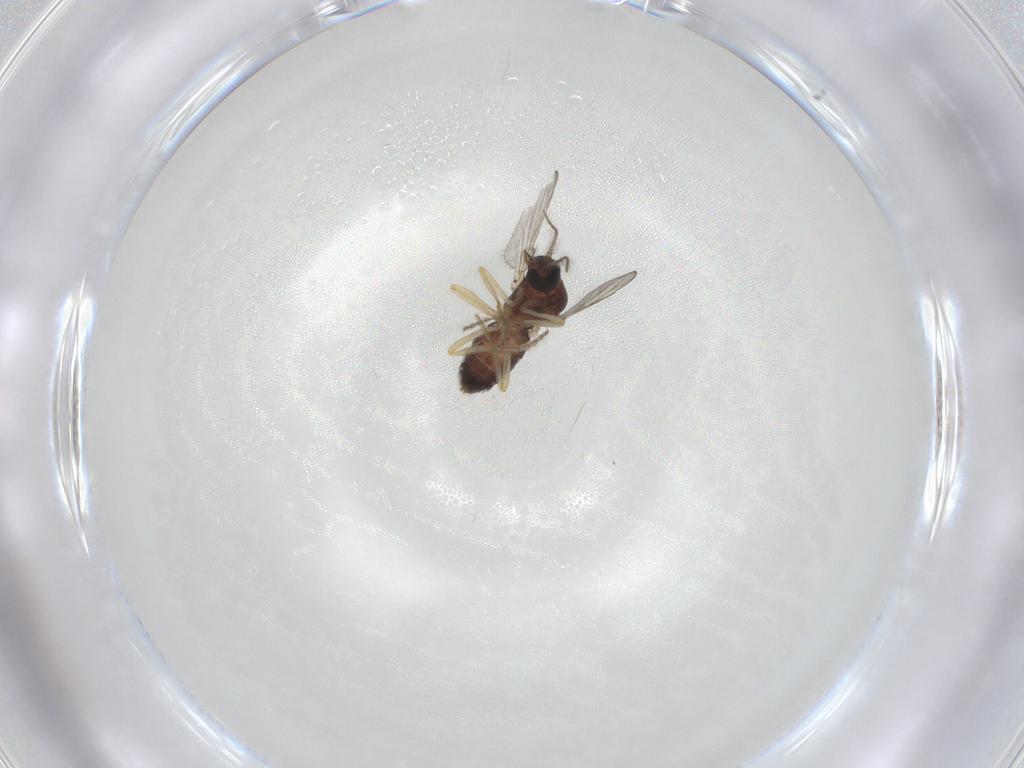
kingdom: Animalia
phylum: Arthropoda
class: Insecta
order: Diptera
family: Ceratopogonidae
